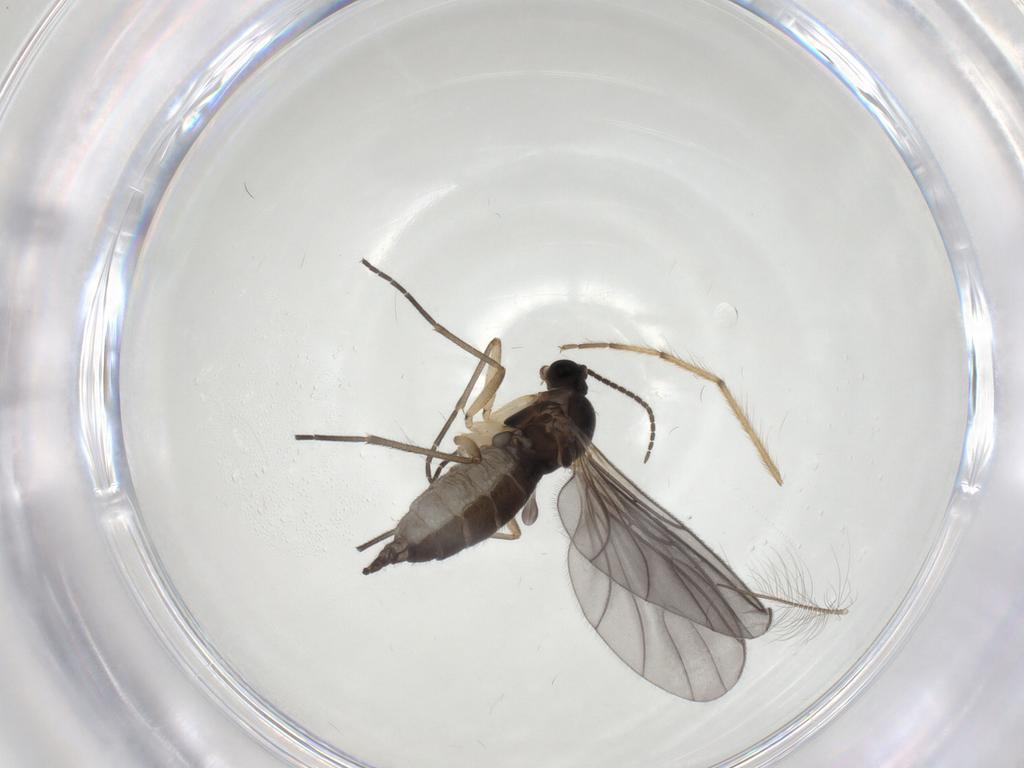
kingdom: Animalia
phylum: Arthropoda
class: Insecta
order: Diptera
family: Sciaridae
